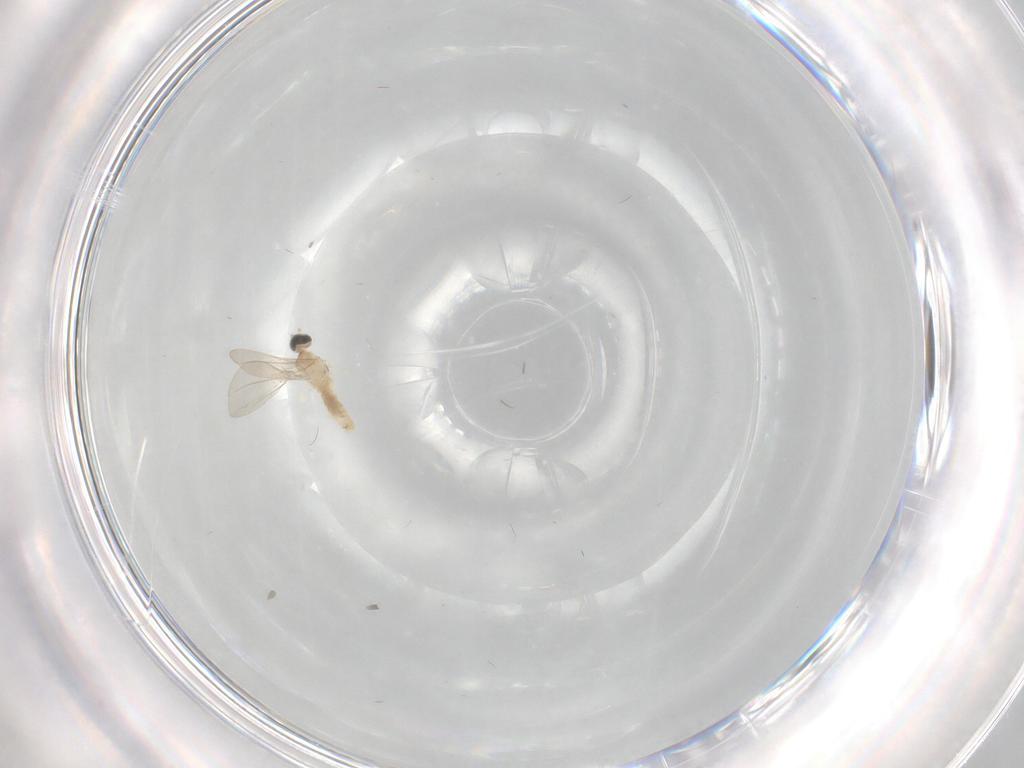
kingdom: Animalia
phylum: Arthropoda
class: Insecta
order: Diptera
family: Cecidomyiidae
